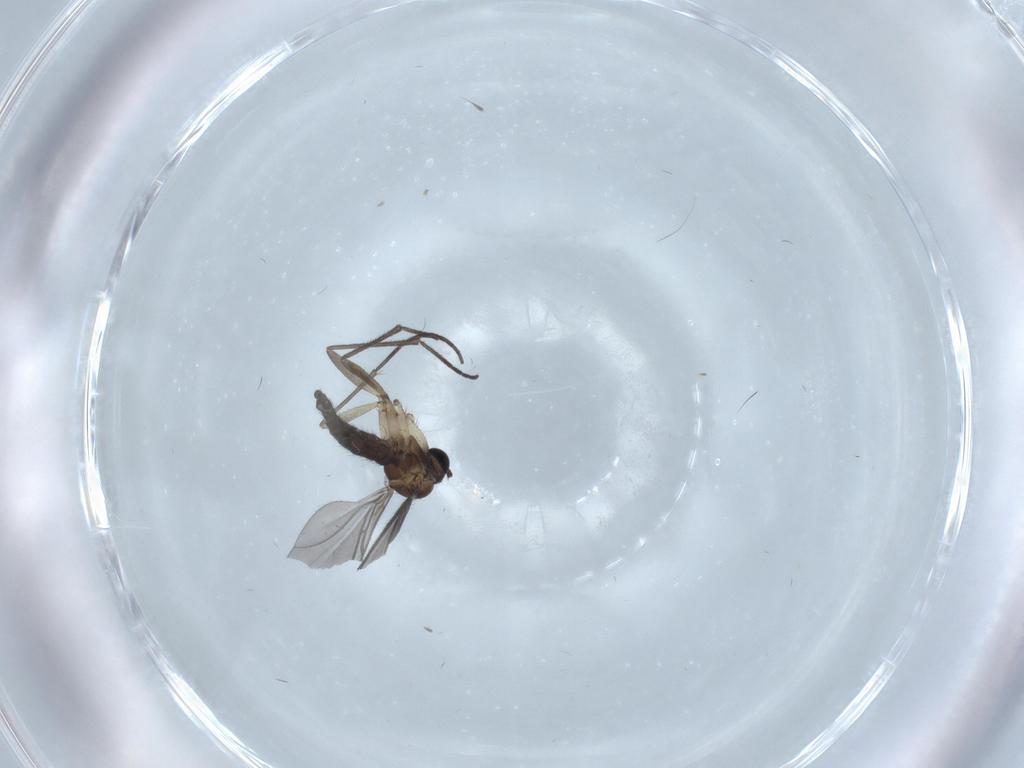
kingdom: Animalia
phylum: Arthropoda
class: Insecta
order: Diptera
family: Sciaridae
